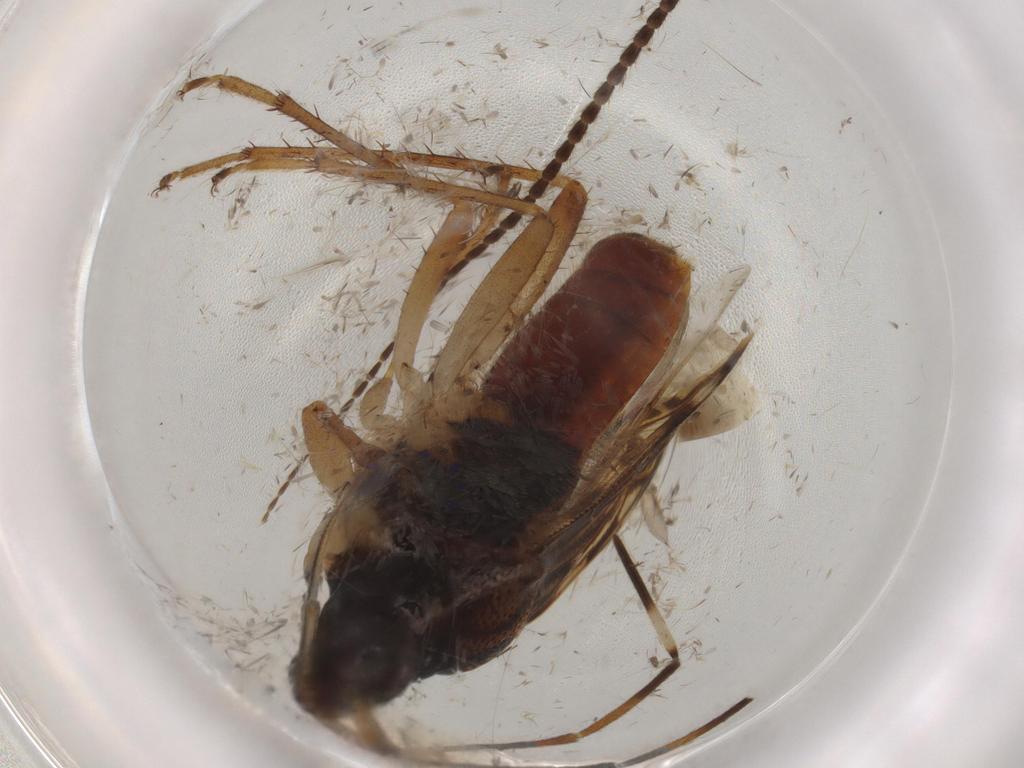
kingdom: Animalia
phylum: Arthropoda
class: Insecta
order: Hemiptera
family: Rhyparochromidae
